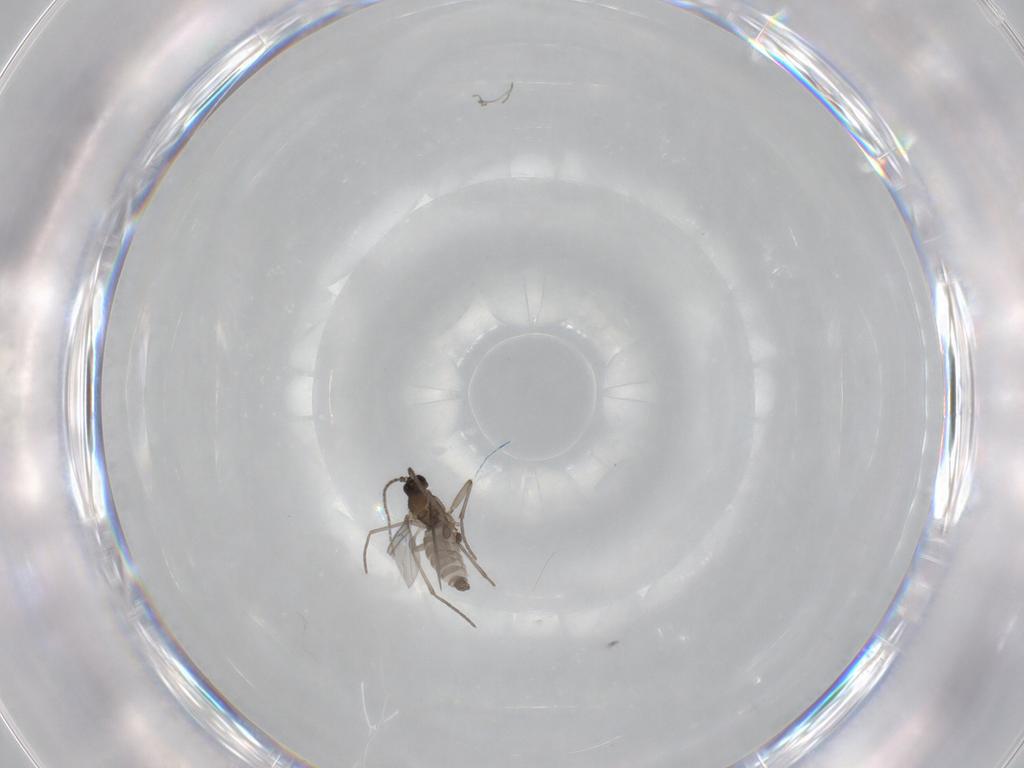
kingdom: Animalia
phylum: Arthropoda
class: Insecta
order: Diptera
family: Sciaridae
